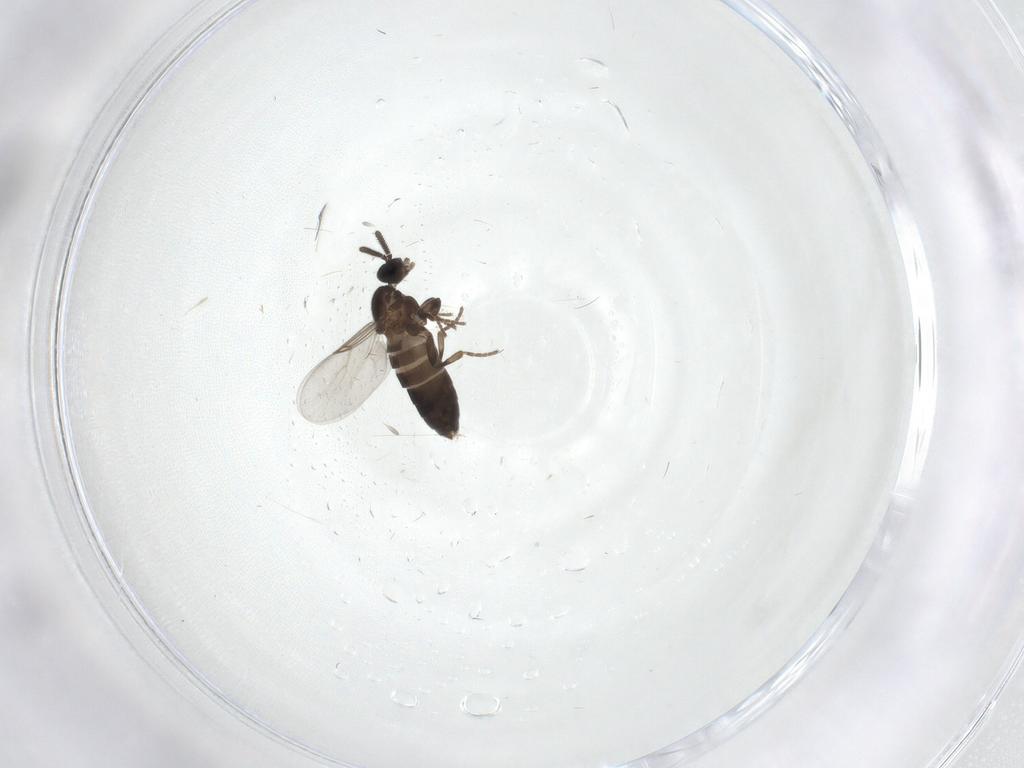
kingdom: Animalia
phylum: Arthropoda
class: Insecta
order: Diptera
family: Scatopsidae
